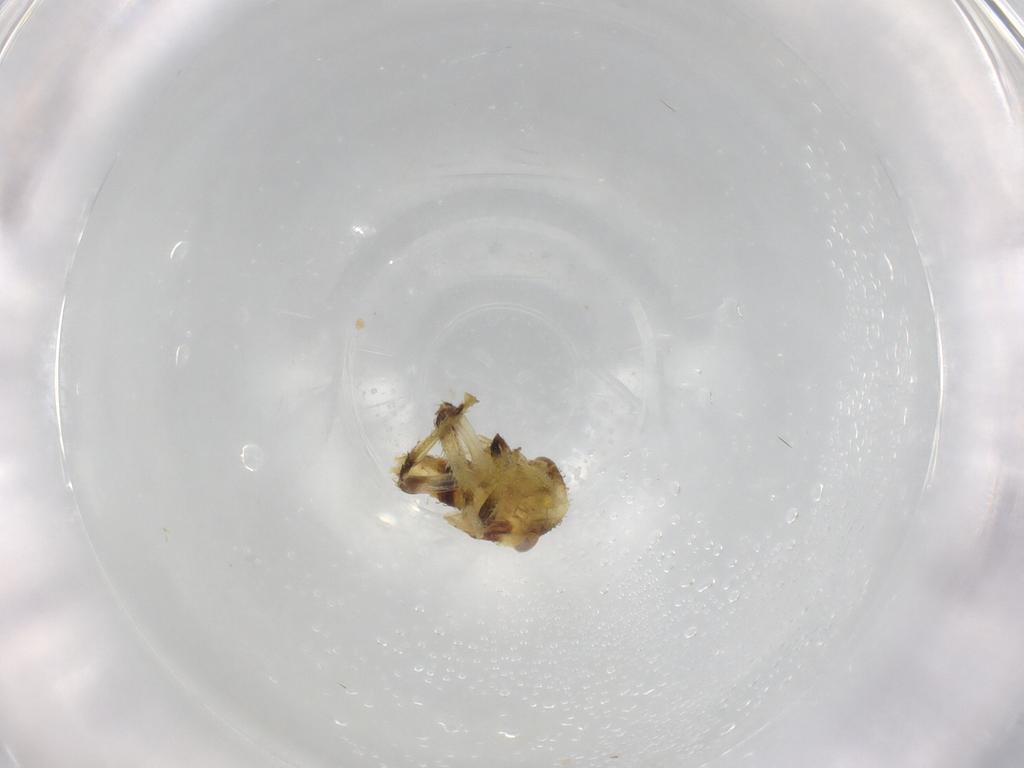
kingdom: Animalia
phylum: Arthropoda
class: Insecta
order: Hemiptera
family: Cicadellidae
